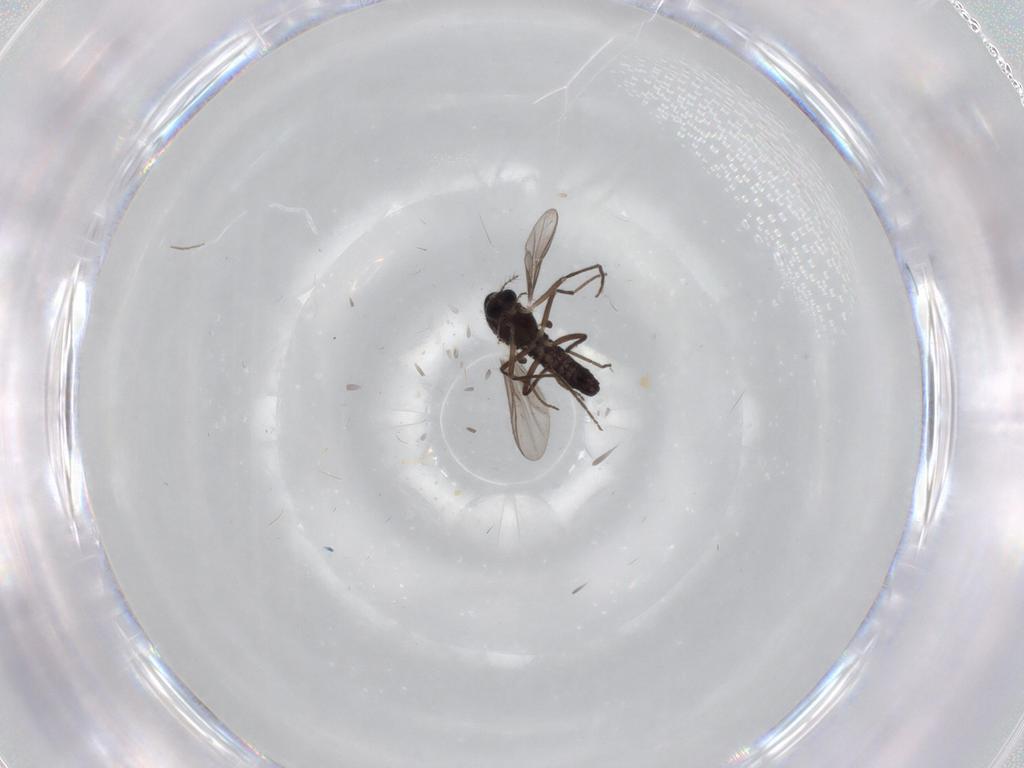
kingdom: Animalia
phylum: Arthropoda
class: Insecta
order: Diptera
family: Chironomidae
